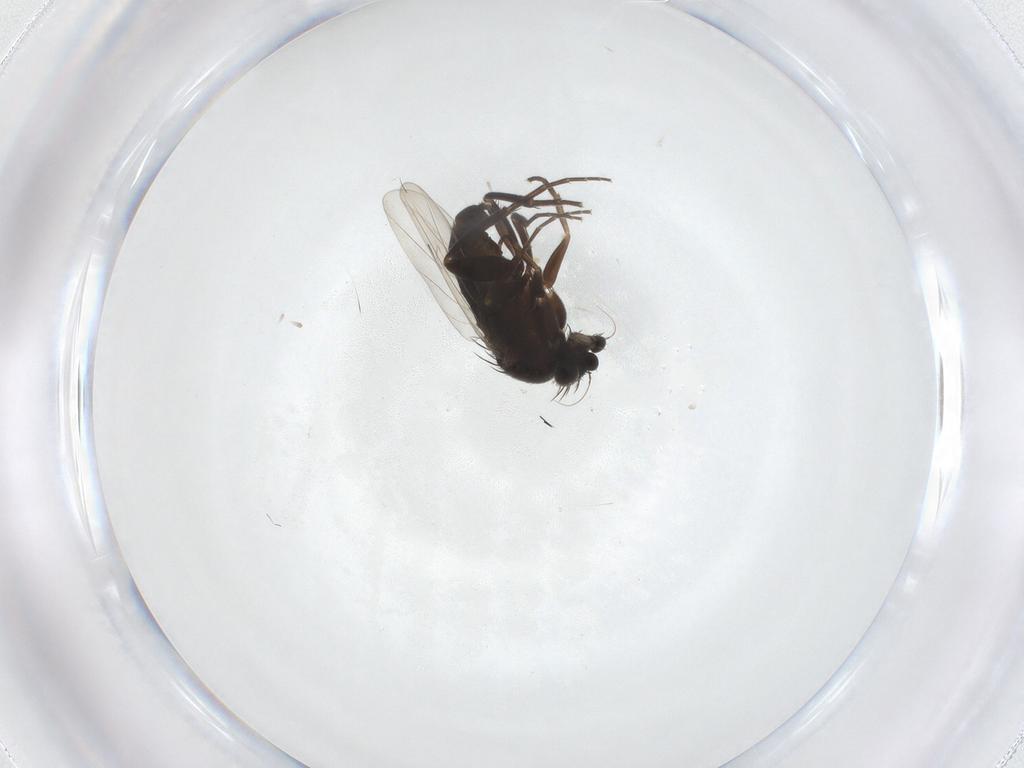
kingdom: Animalia
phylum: Arthropoda
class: Insecta
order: Diptera
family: Phoridae
